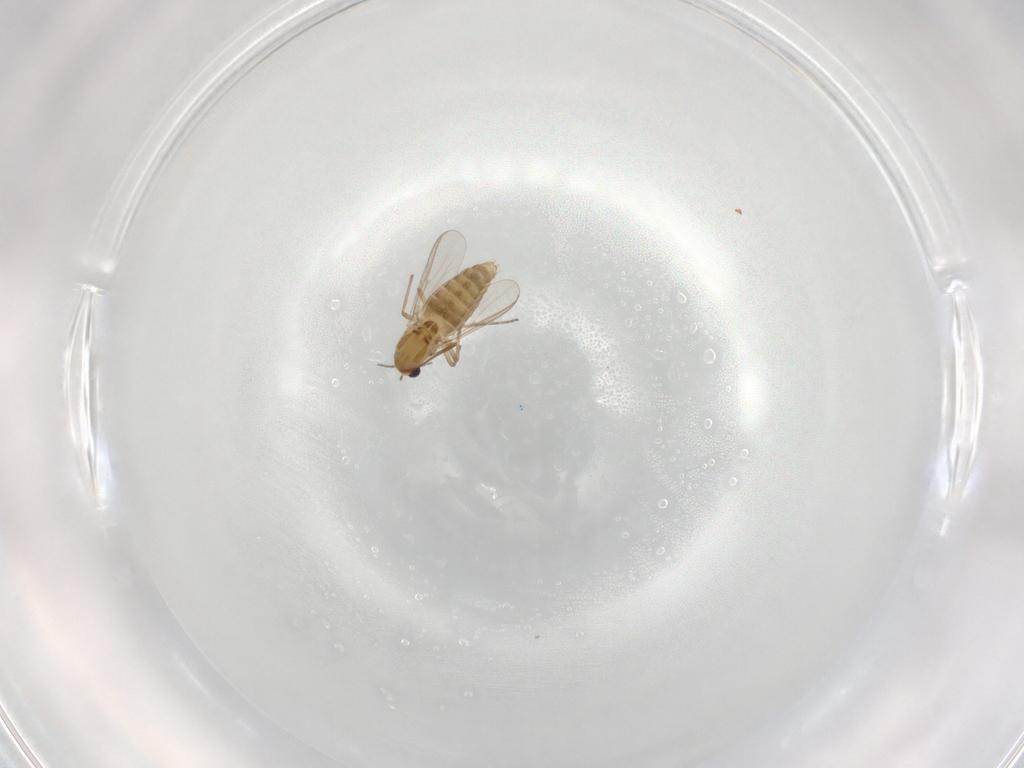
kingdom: Animalia
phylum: Arthropoda
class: Insecta
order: Diptera
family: Chironomidae
